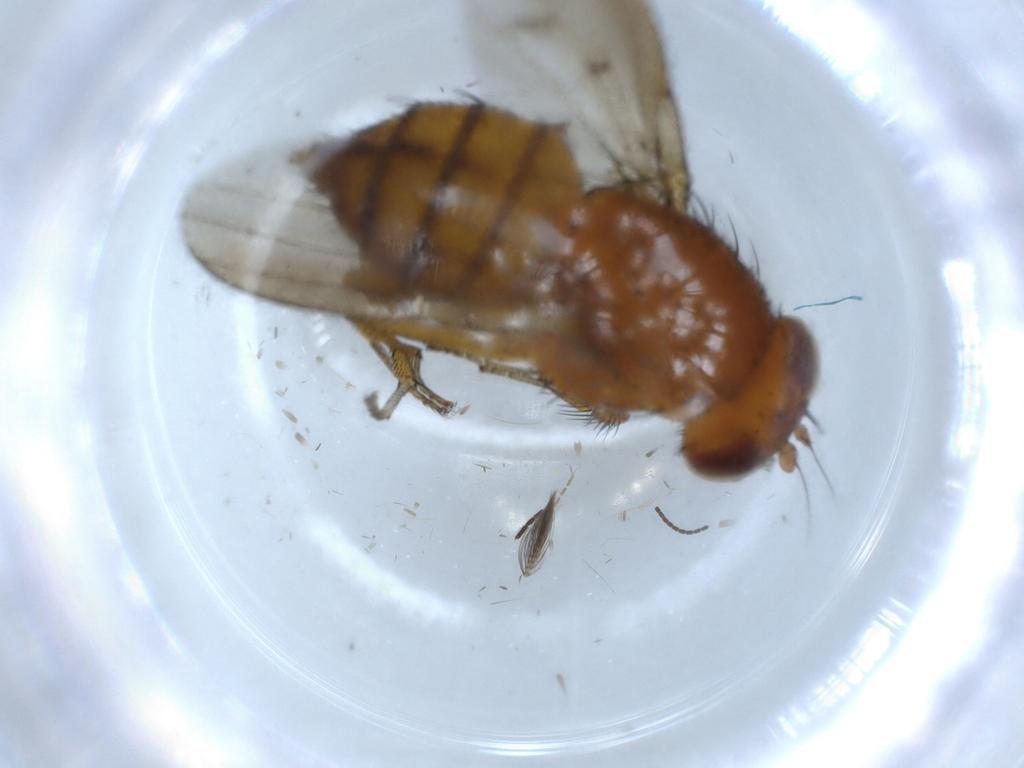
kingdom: Animalia
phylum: Arthropoda
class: Insecta
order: Diptera
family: Ceratopogonidae
